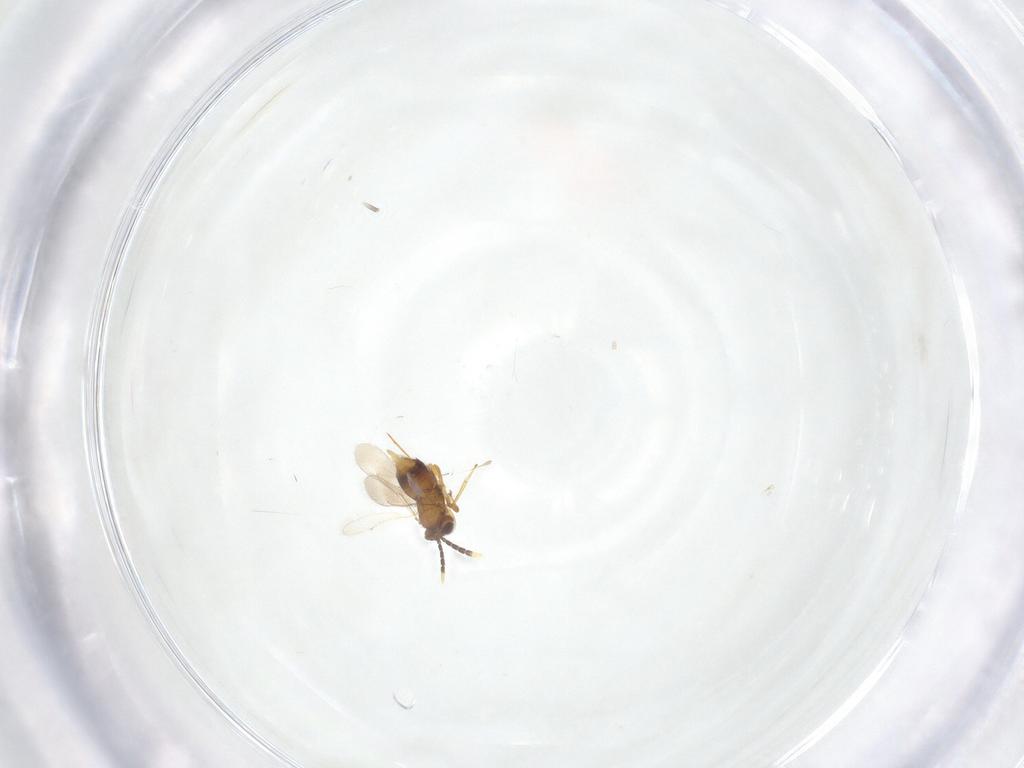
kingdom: Animalia
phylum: Arthropoda
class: Insecta
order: Hymenoptera
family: Aphelinidae
